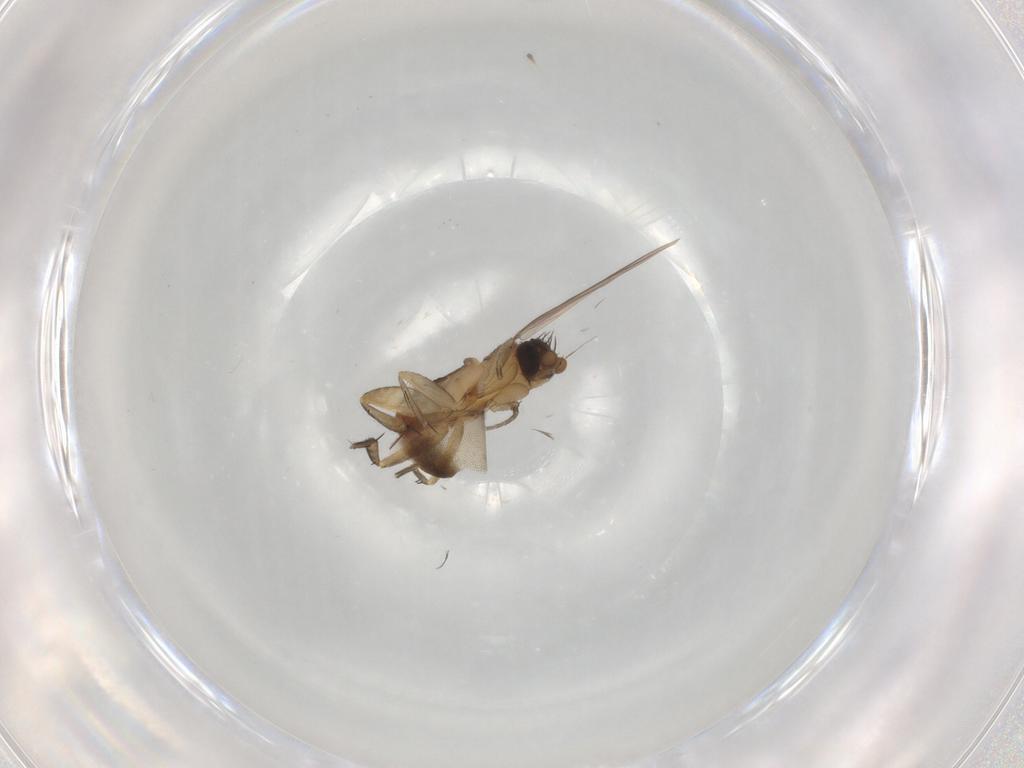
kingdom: Animalia
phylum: Arthropoda
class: Insecta
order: Diptera
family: Phoridae
